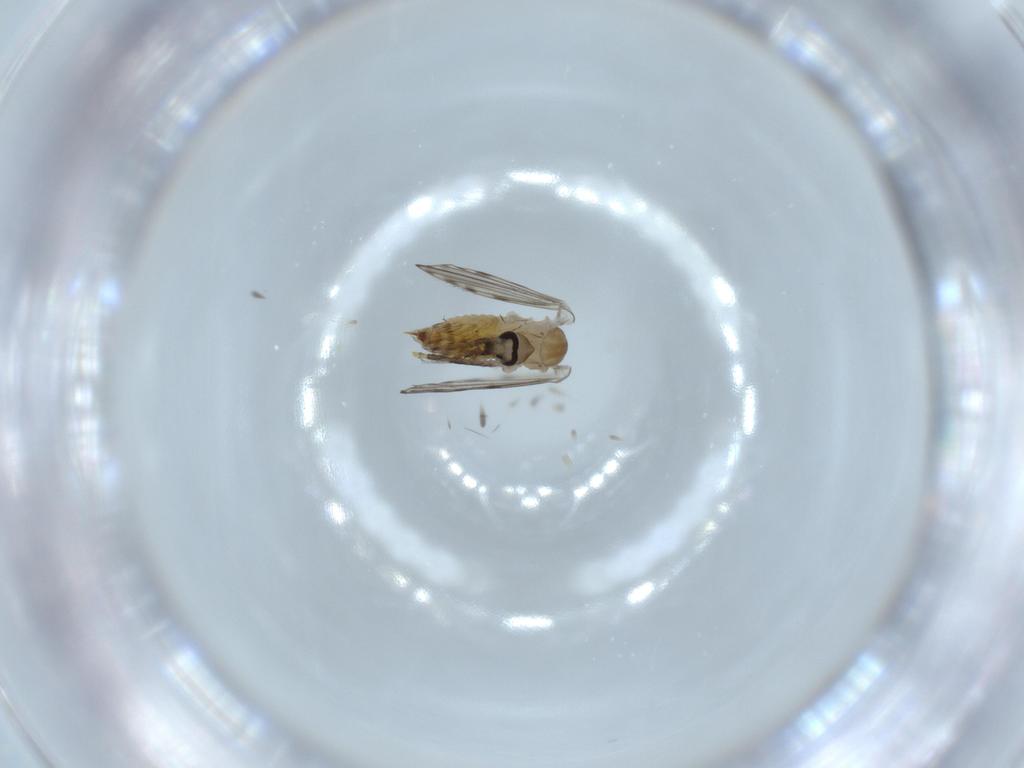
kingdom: Animalia
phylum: Arthropoda
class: Insecta
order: Diptera
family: Psychodidae
